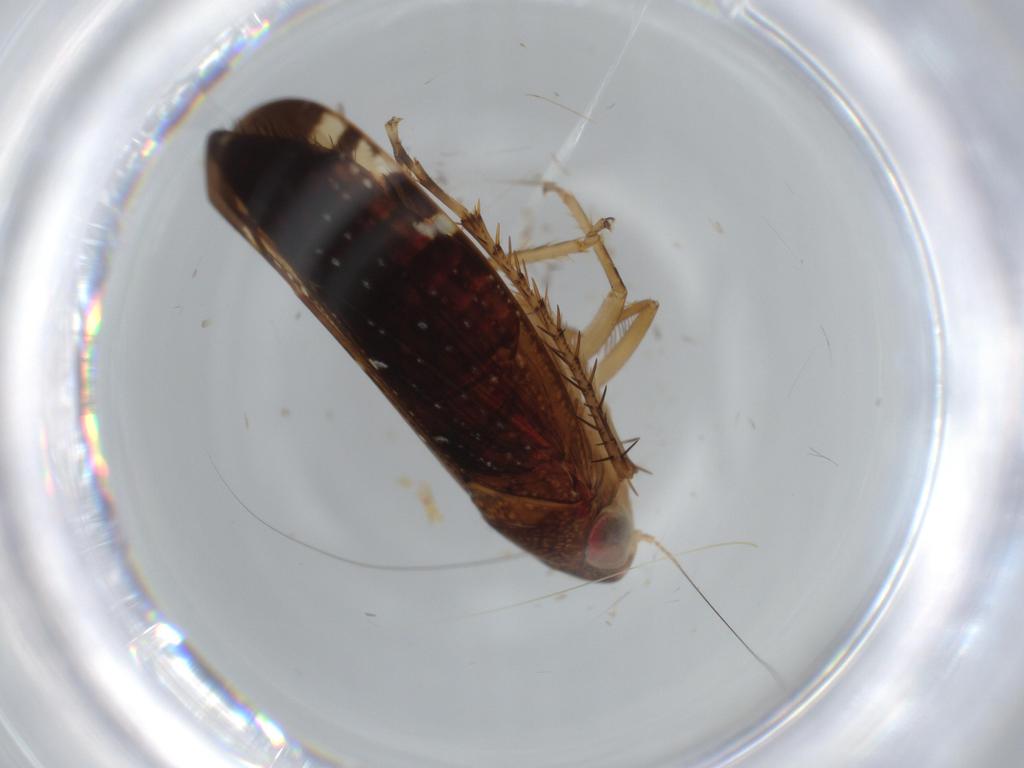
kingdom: Animalia
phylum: Arthropoda
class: Insecta
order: Hemiptera
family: Cicadellidae
